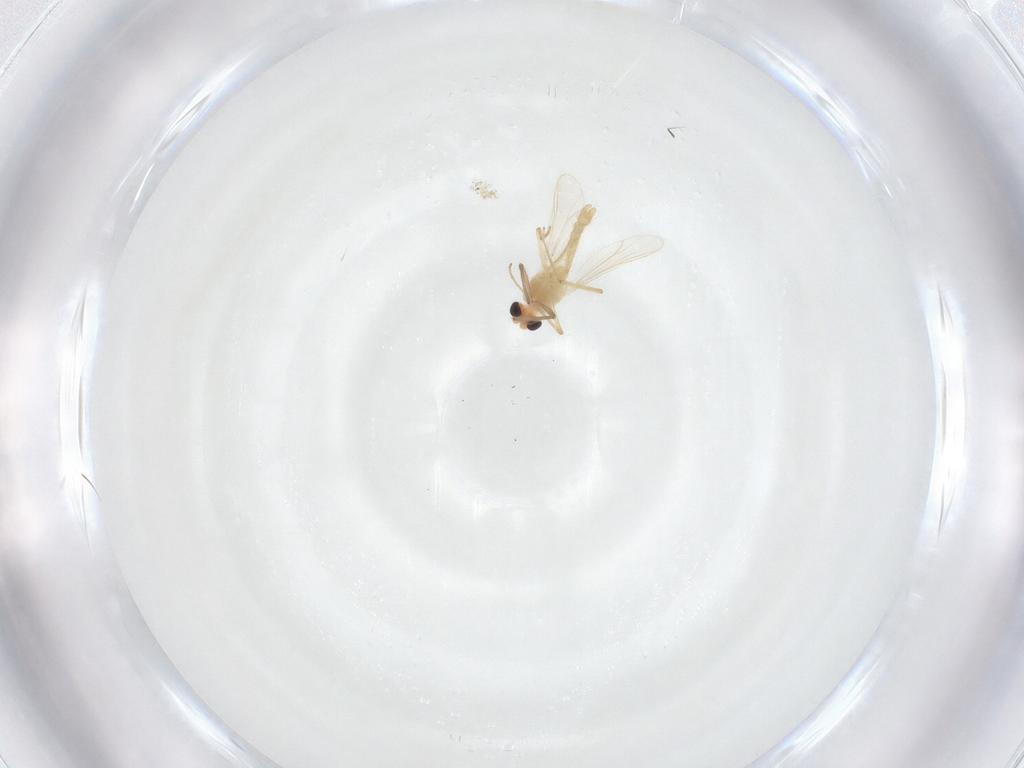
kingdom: Animalia
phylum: Arthropoda
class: Insecta
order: Diptera
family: Chironomidae
